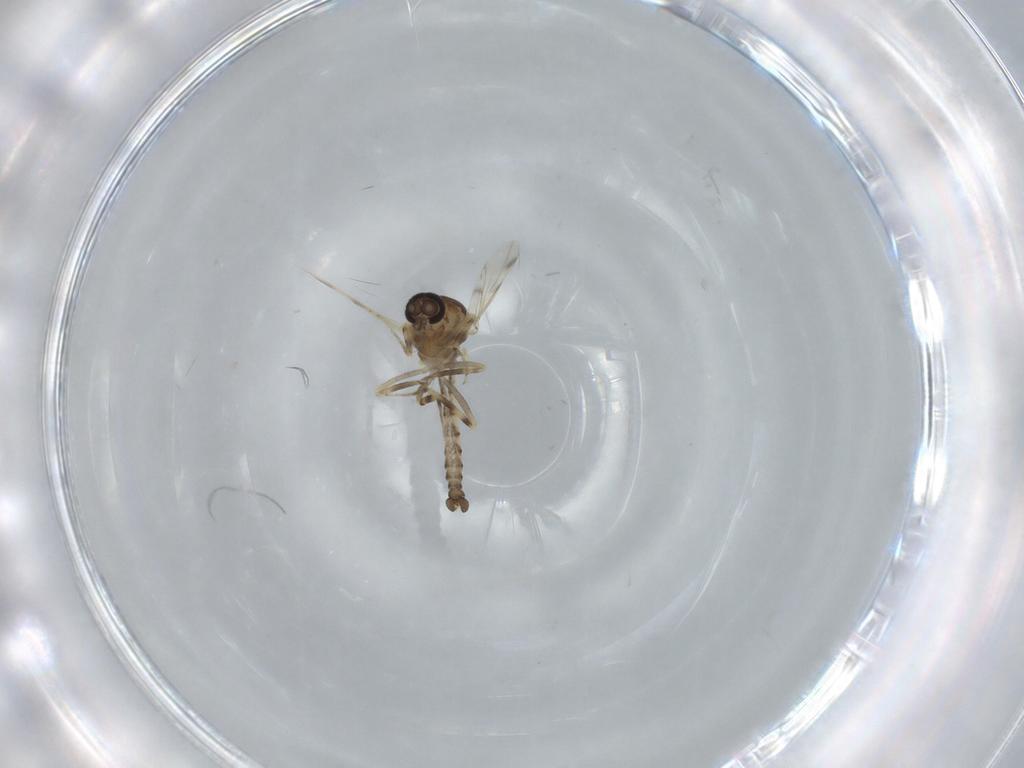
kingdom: Animalia
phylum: Arthropoda
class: Insecta
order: Diptera
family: Ceratopogonidae
